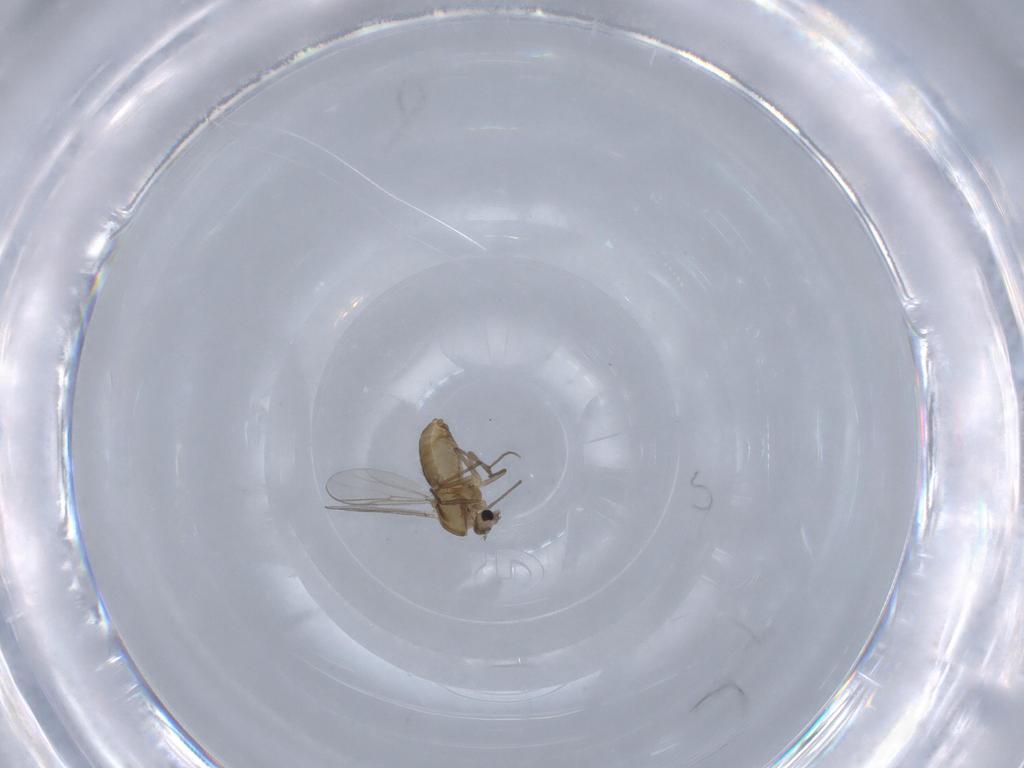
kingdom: Animalia
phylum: Arthropoda
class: Insecta
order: Diptera
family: Chironomidae
